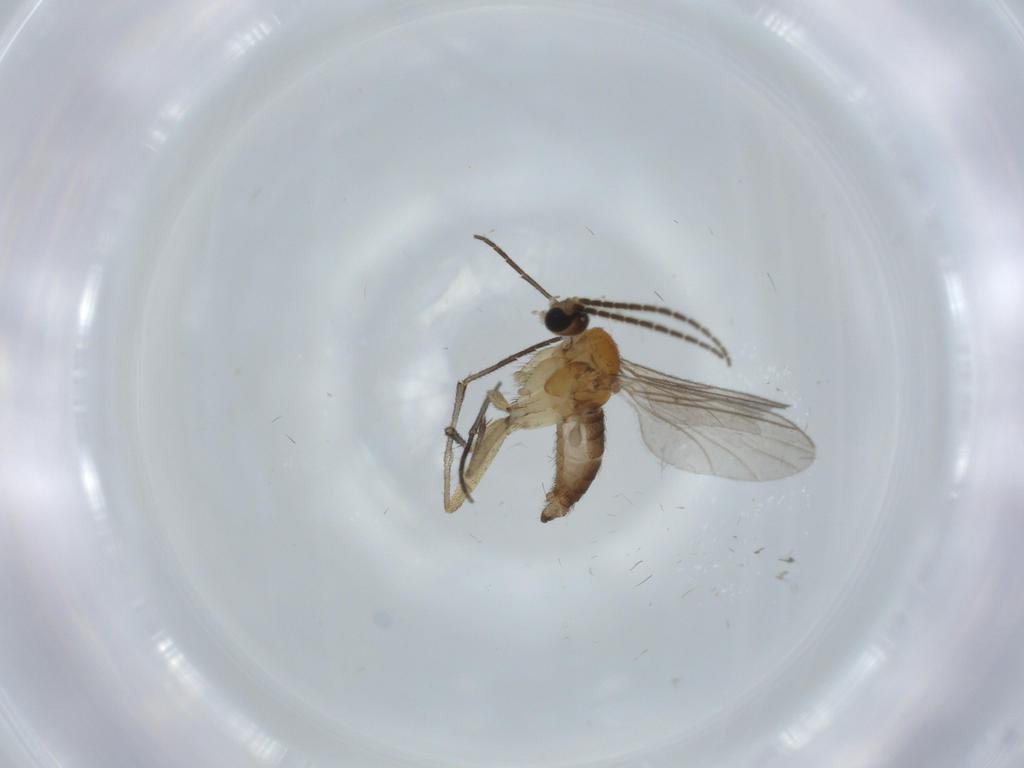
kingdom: Animalia
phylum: Arthropoda
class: Insecta
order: Diptera
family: Sciaridae
